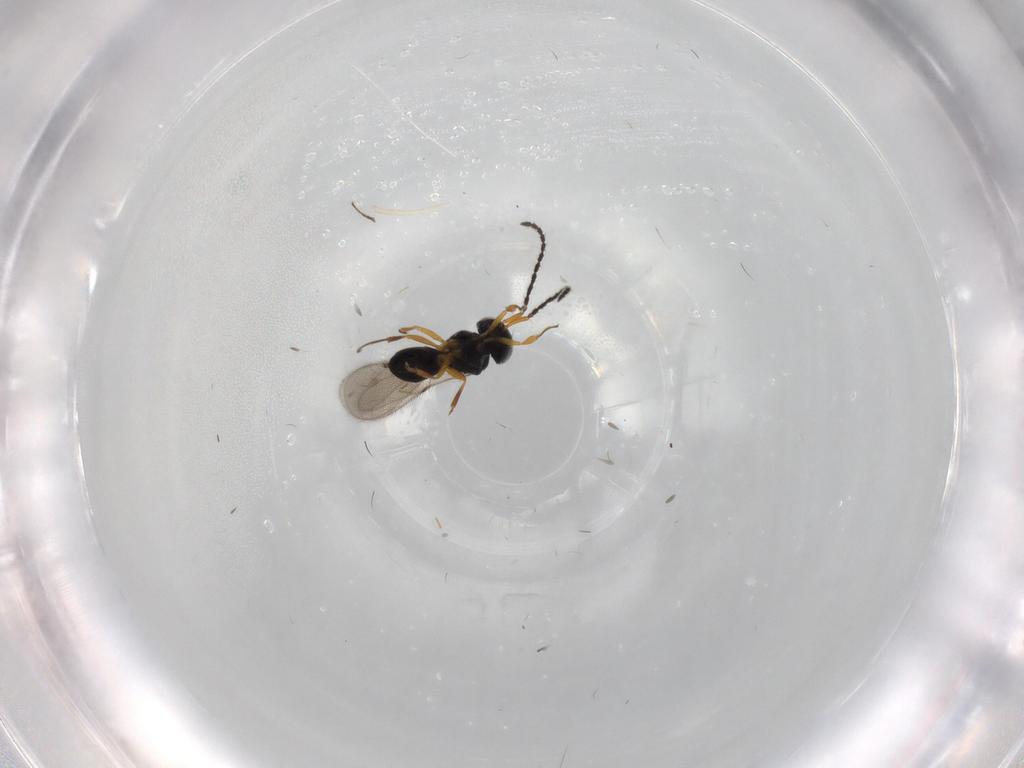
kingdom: Animalia
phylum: Arthropoda
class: Insecta
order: Hymenoptera
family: Scelionidae
